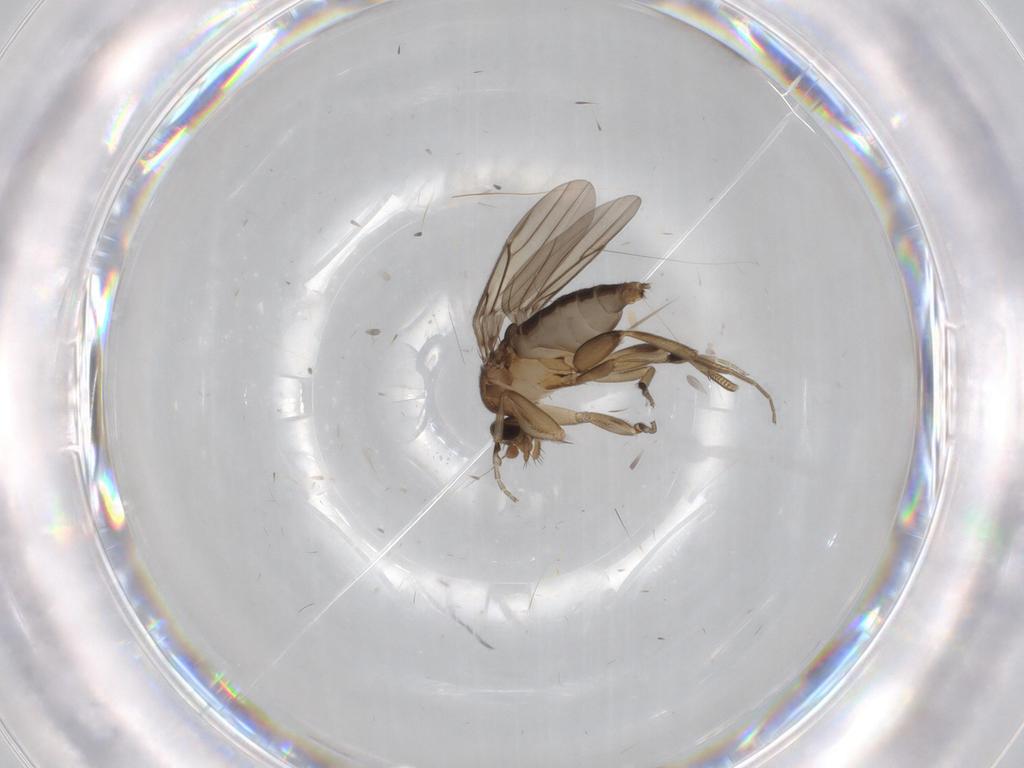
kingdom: Animalia
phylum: Arthropoda
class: Insecta
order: Diptera
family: Phoridae
